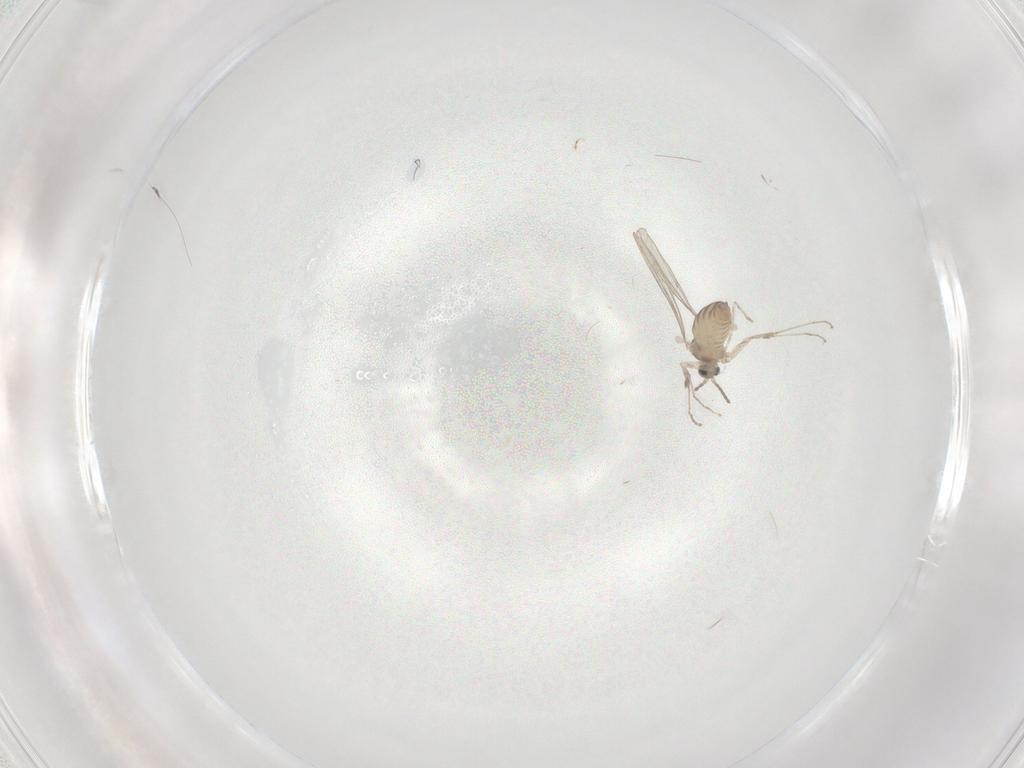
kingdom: Animalia
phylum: Arthropoda
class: Insecta
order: Diptera
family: Cecidomyiidae
